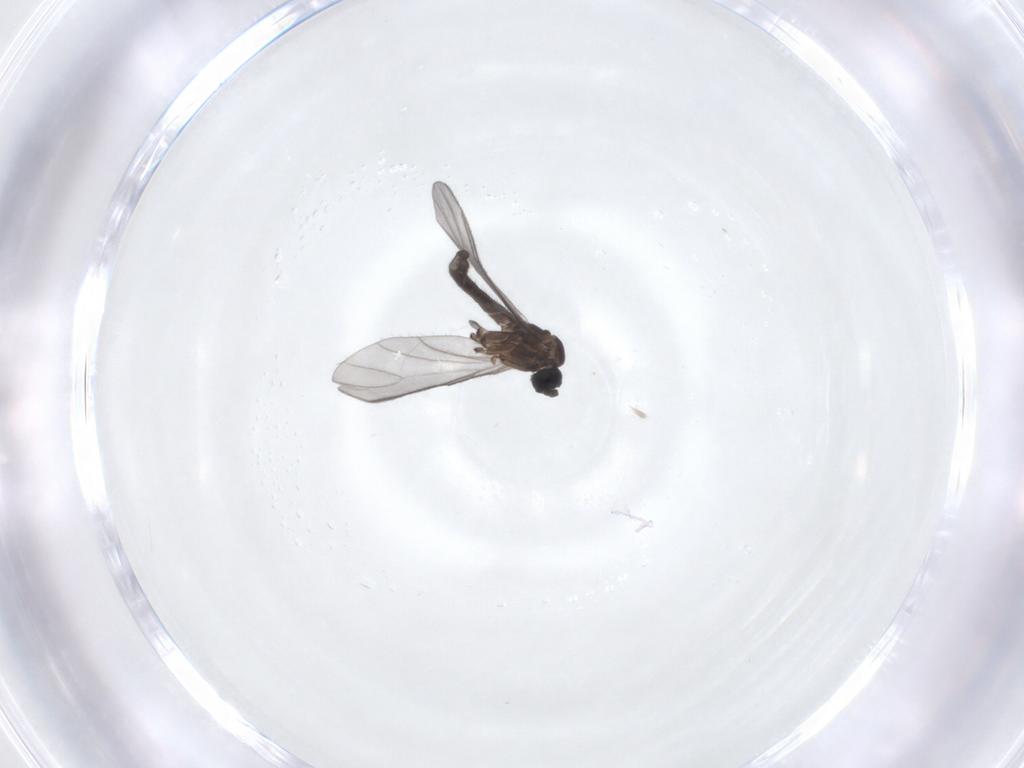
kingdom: Animalia
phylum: Arthropoda
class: Insecta
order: Diptera
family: Sciaridae
